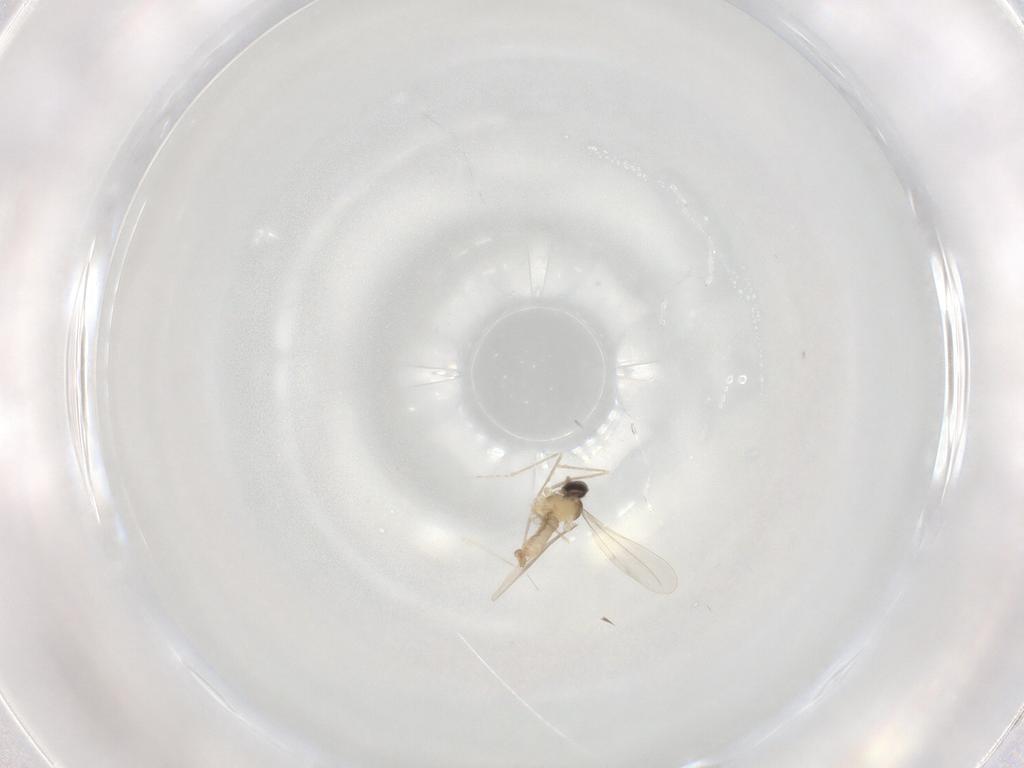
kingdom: Animalia
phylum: Arthropoda
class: Insecta
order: Diptera
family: Cecidomyiidae
